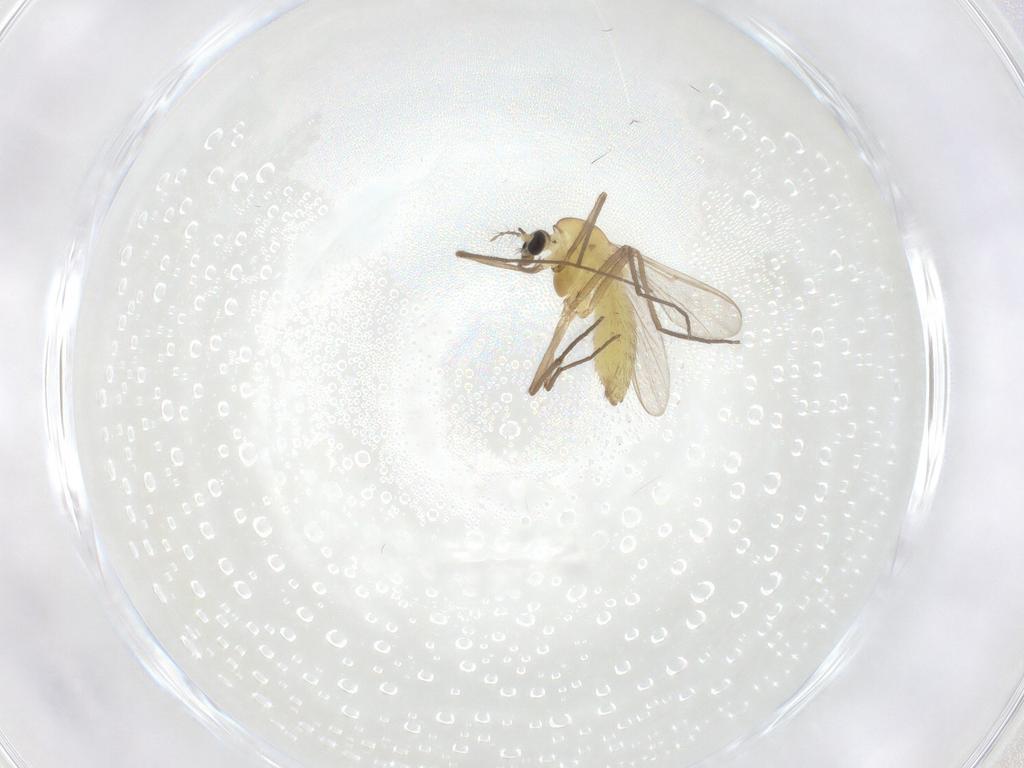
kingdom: Animalia
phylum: Arthropoda
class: Insecta
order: Diptera
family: Chironomidae
